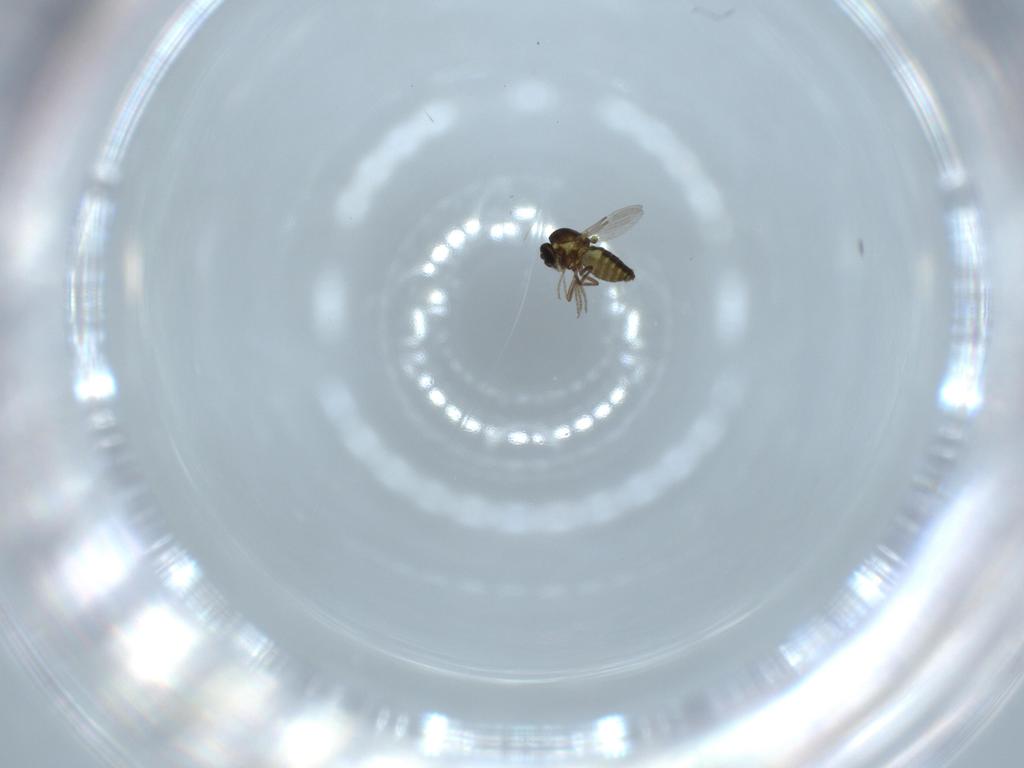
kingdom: Animalia
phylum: Arthropoda
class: Insecta
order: Diptera
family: Ceratopogonidae
